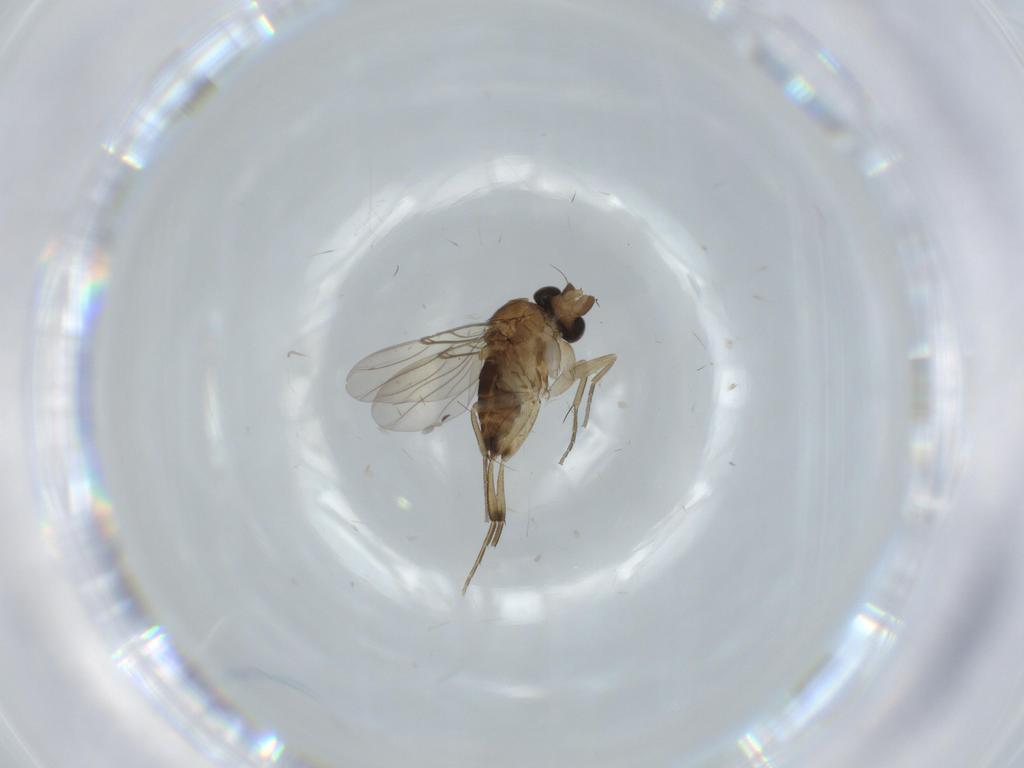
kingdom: Animalia
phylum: Arthropoda
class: Insecta
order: Diptera
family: Phoridae
